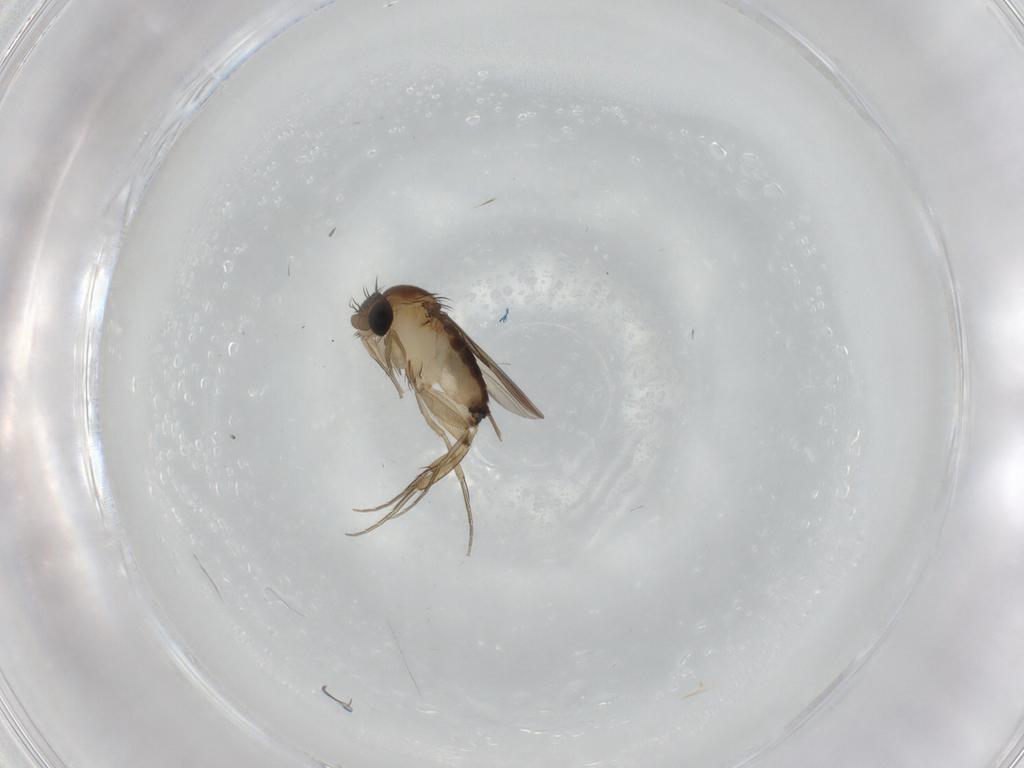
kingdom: Animalia
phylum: Arthropoda
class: Insecta
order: Diptera
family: Phoridae
